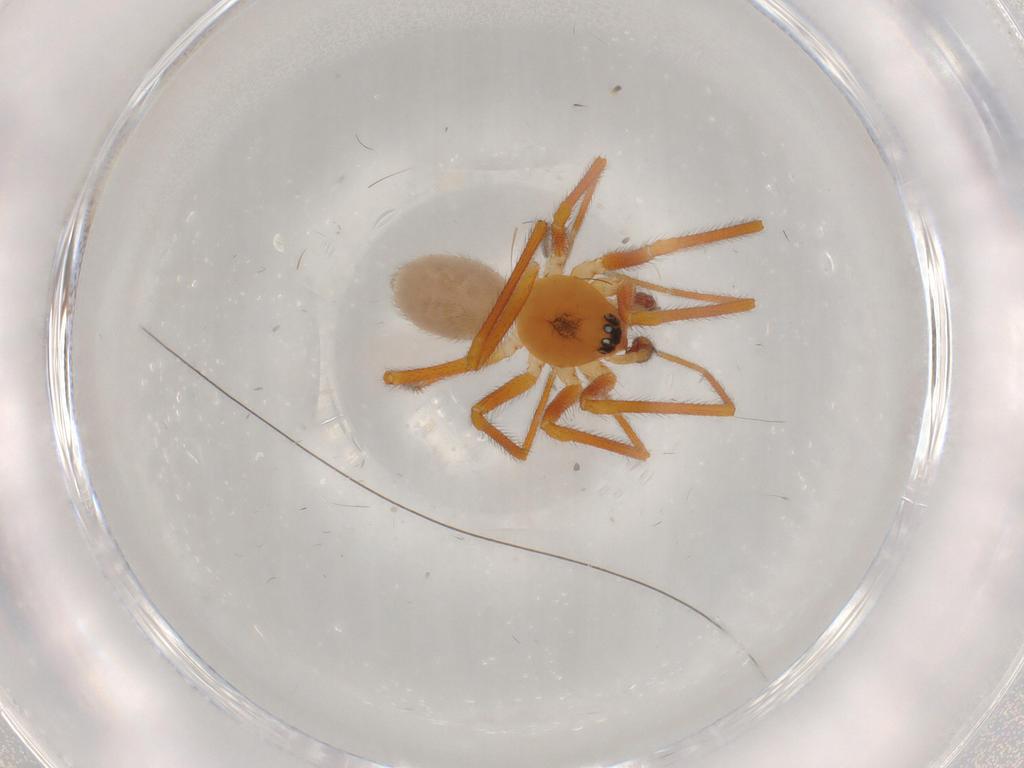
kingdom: Animalia
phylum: Arthropoda
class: Arachnida
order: Araneae
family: Linyphiidae
